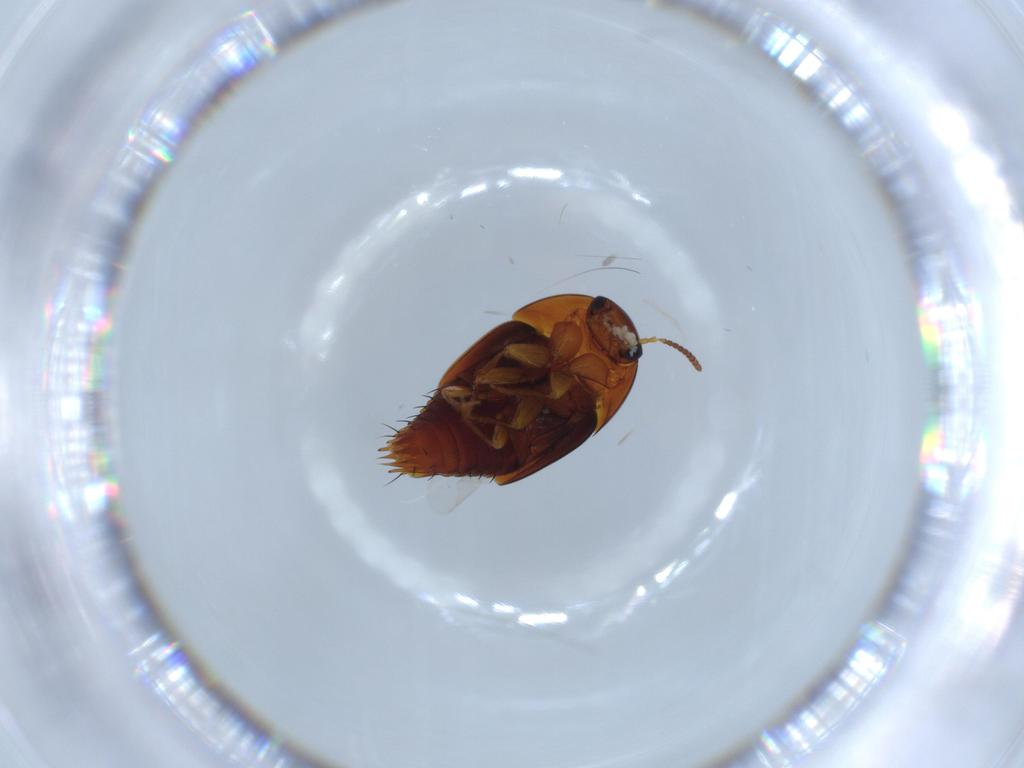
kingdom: Animalia
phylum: Arthropoda
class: Insecta
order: Coleoptera
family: Staphylinidae
